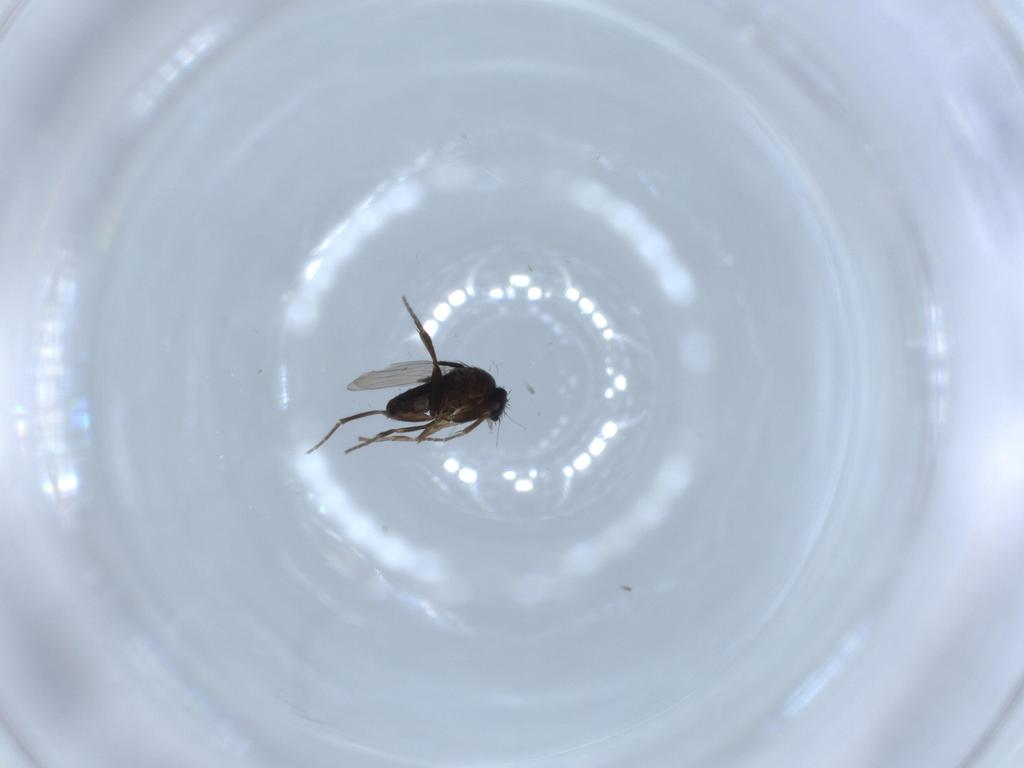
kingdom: Animalia
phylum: Arthropoda
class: Insecta
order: Diptera
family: Phoridae
